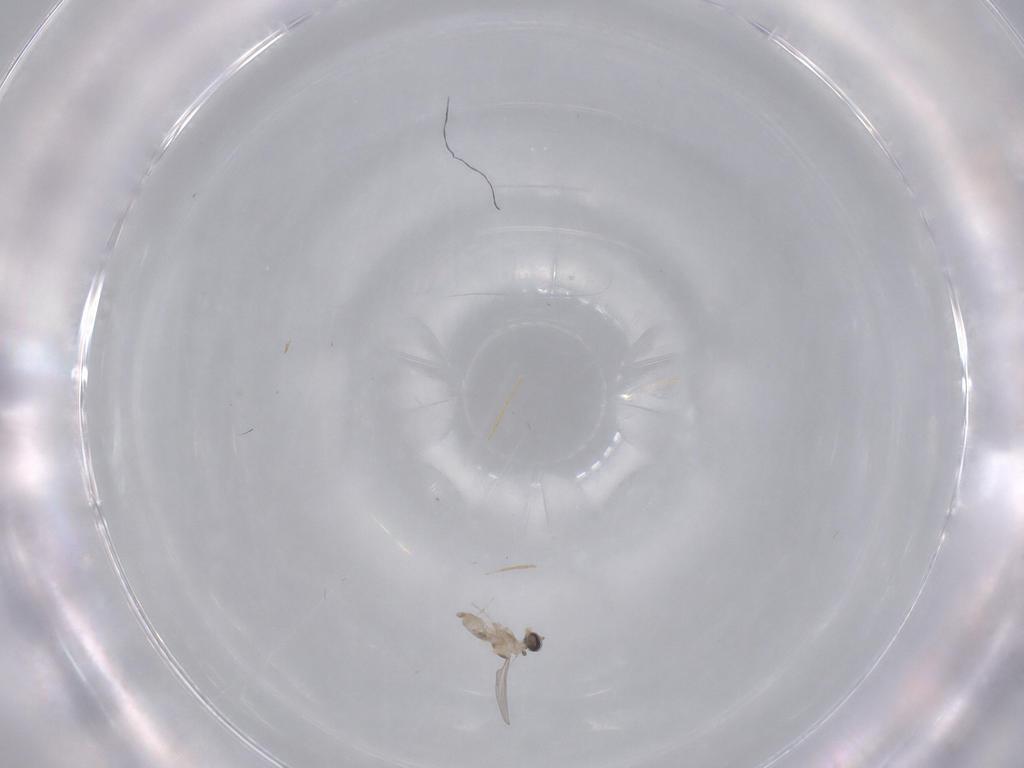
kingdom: Animalia
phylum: Arthropoda
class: Insecta
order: Diptera
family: Cecidomyiidae
